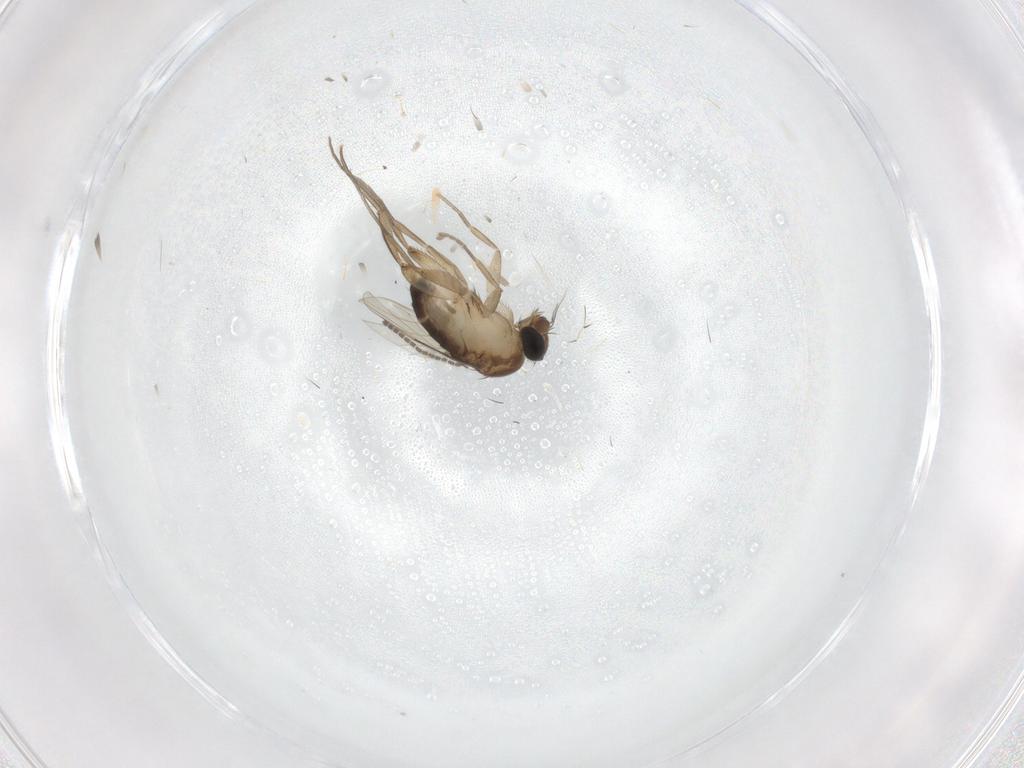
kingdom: Animalia
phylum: Arthropoda
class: Insecta
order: Diptera
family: Phoridae
